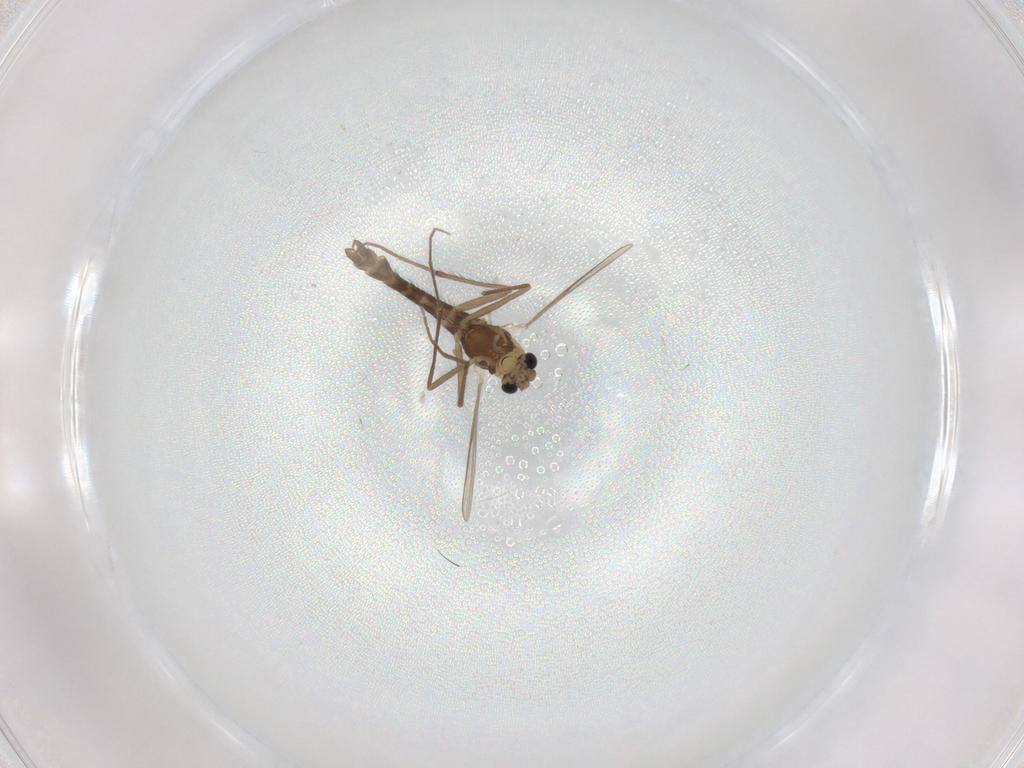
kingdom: Animalia
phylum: Arthropoda
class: Insecta
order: Diptera
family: Chironomidae
